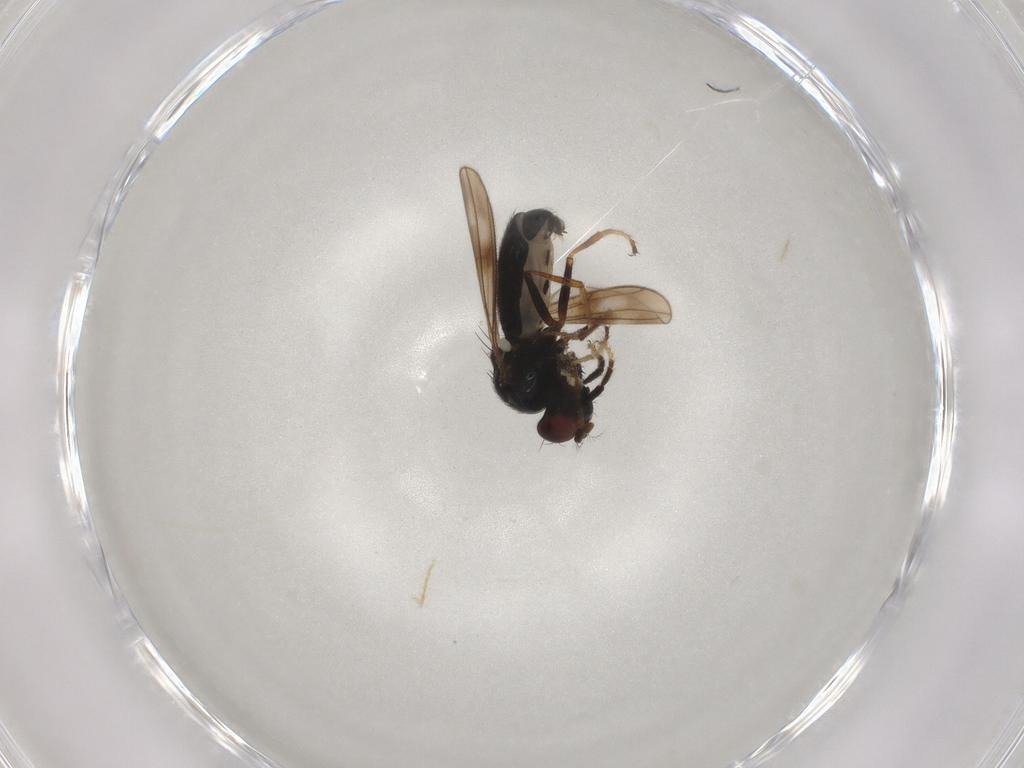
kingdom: Animalia
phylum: Arthropoda
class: Insecta
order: Diptera
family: Ephydridae
